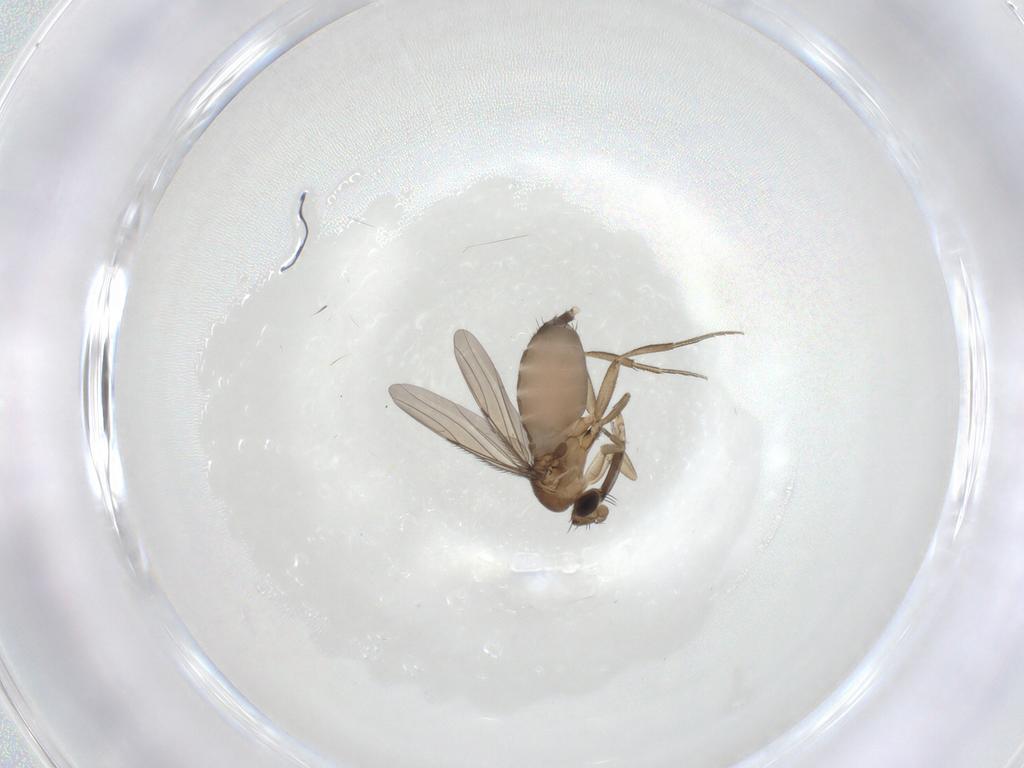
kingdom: Animalia
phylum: Arthropoda
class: Insecta
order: Diptera
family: Phoridae
